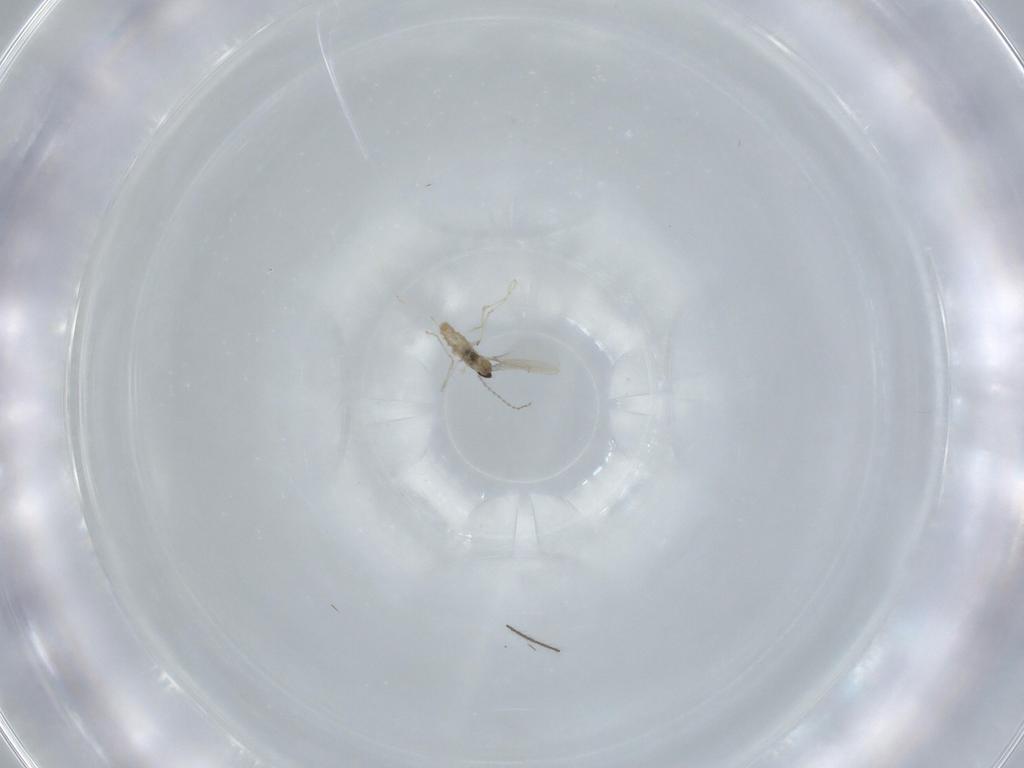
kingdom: Animalia
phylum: Arthropoda
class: Insecta
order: Diptera
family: Cecidomyiidae
